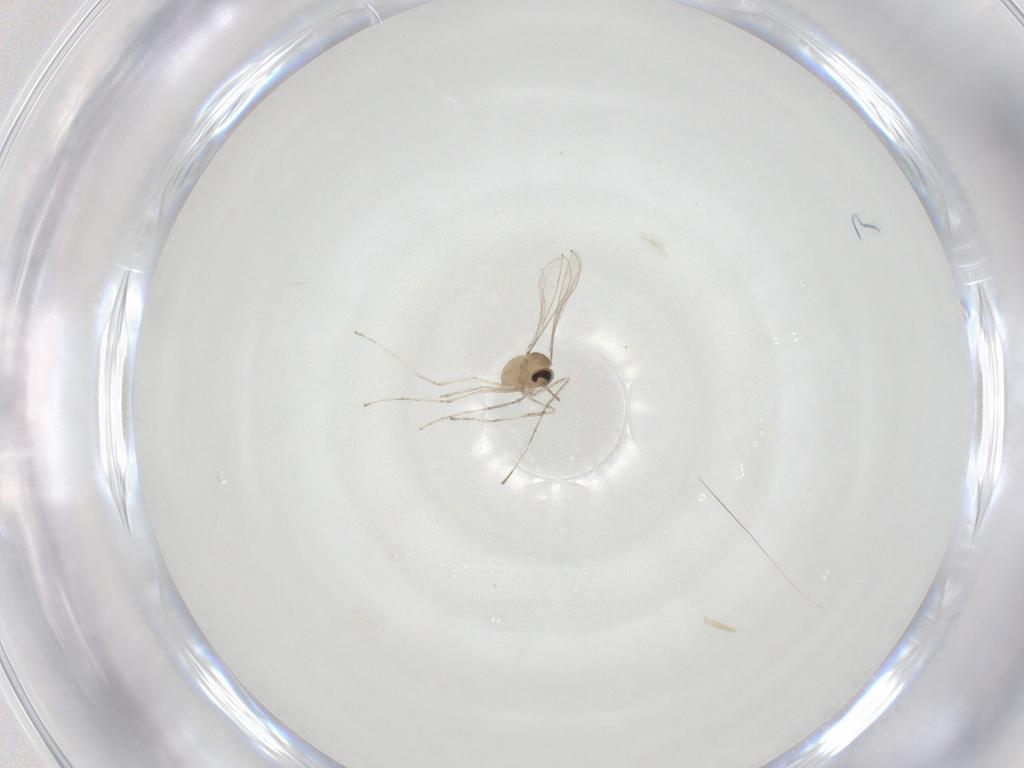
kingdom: Animalia
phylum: Arthropoda
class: Insecta
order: Diptera
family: Cecidomyiidae
